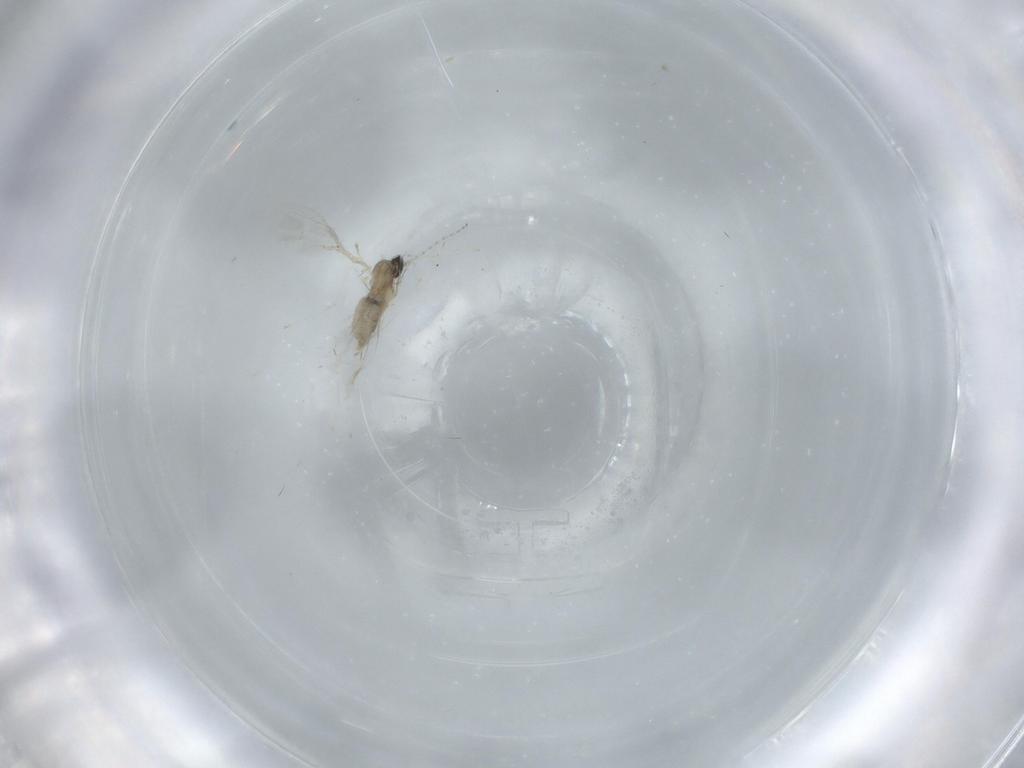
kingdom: Animalia
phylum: Arthropoda
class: Insecta
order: Diptera
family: Cecidomyiidae
